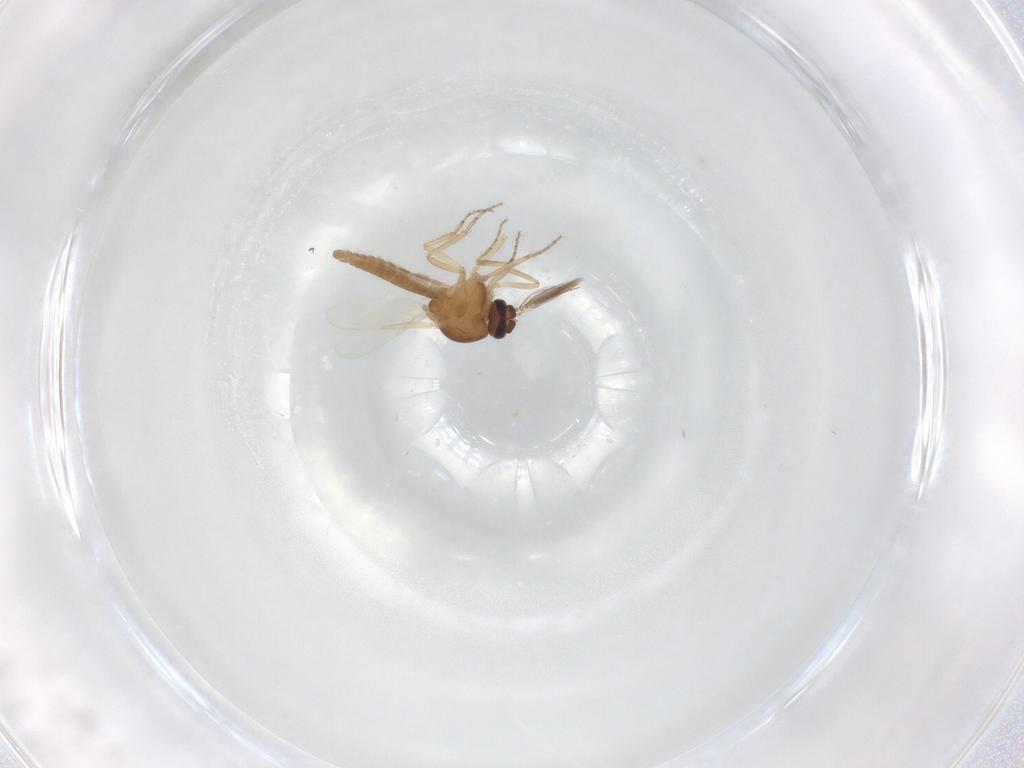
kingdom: Animalia
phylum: Arthropoda
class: Insecta
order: Diptera
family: Ceratopogonidae
